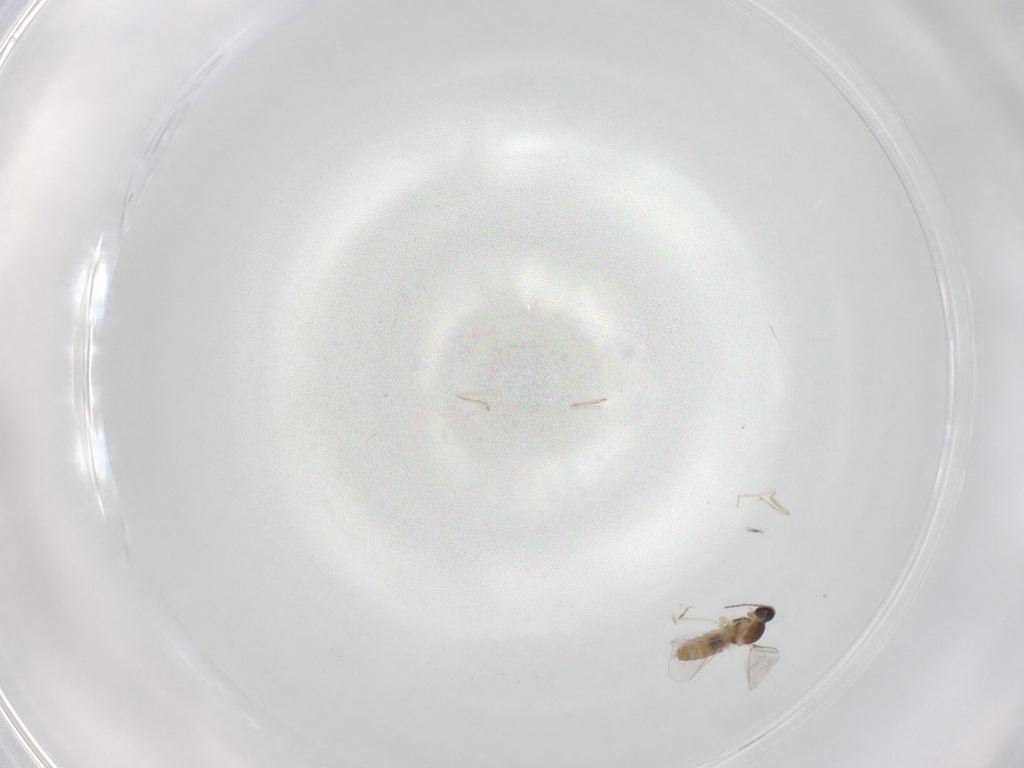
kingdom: Animalia
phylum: Arthropoda
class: Insecta
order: Diptera
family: Cecidomyiidae
